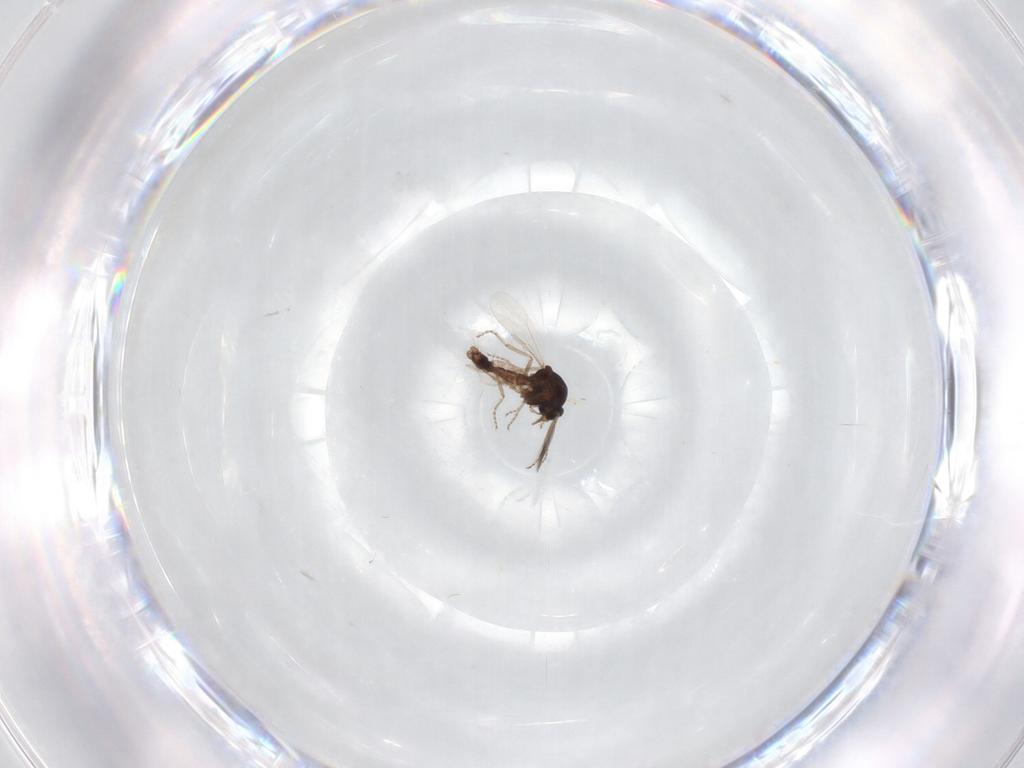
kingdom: Animalia
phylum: Arthropoda
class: Insecta
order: Diptera
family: Ceratopogonidae
